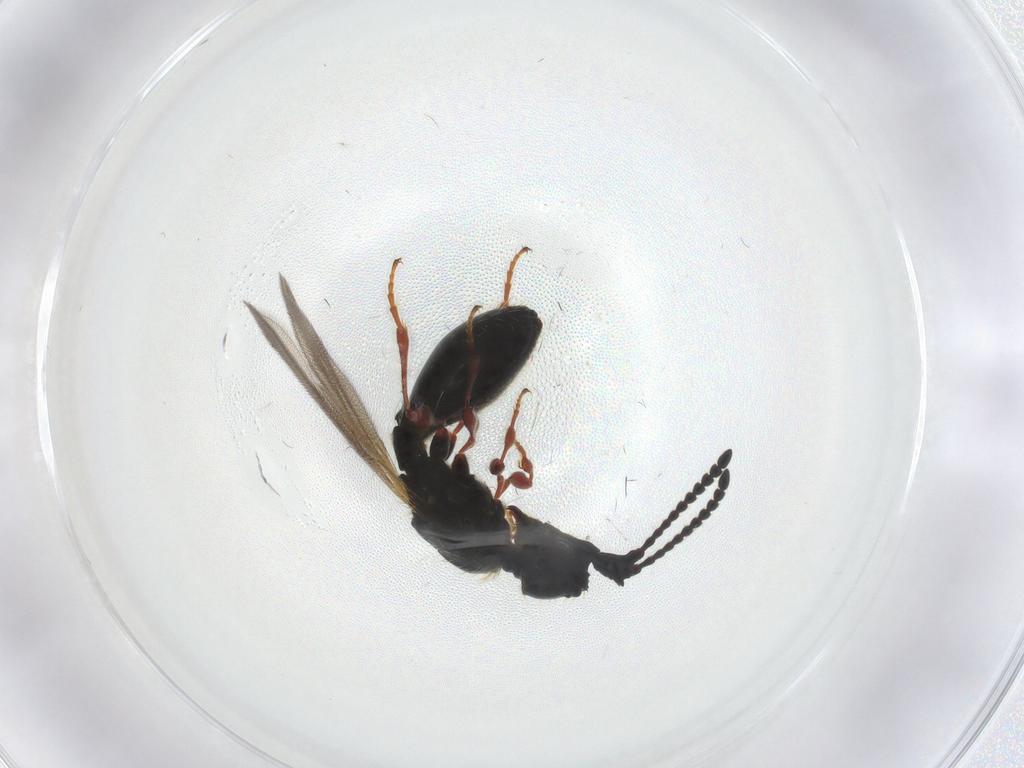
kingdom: Animalia
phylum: Arthropoda
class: Insecta
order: Hymenoptera
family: Diapriidae
